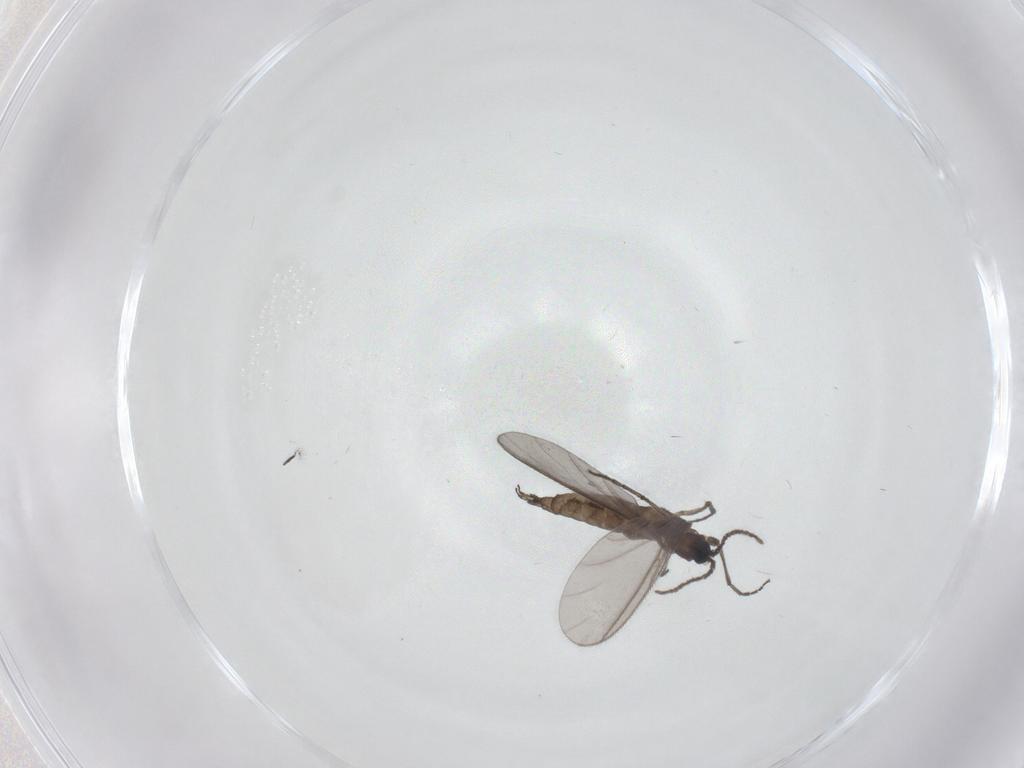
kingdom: Animalia
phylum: Arthropoda
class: Insecta
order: Diptera
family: Sciaridae
